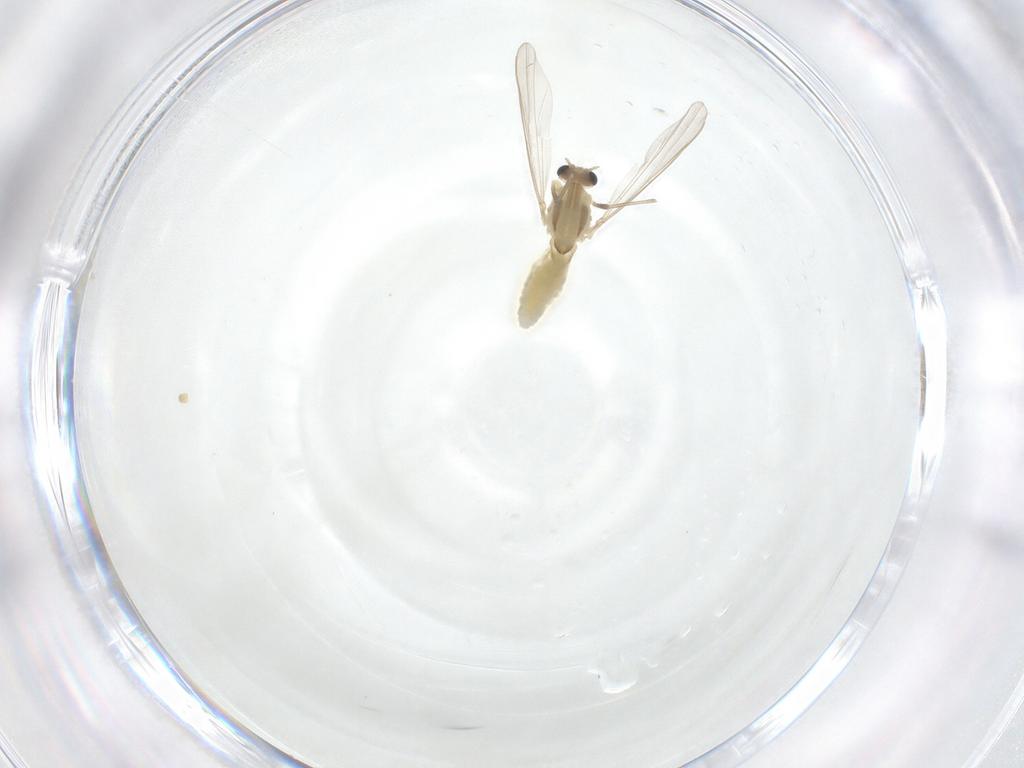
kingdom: Animalia
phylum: Arthropoda
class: Insecta
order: Diptera
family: Chironomidae
